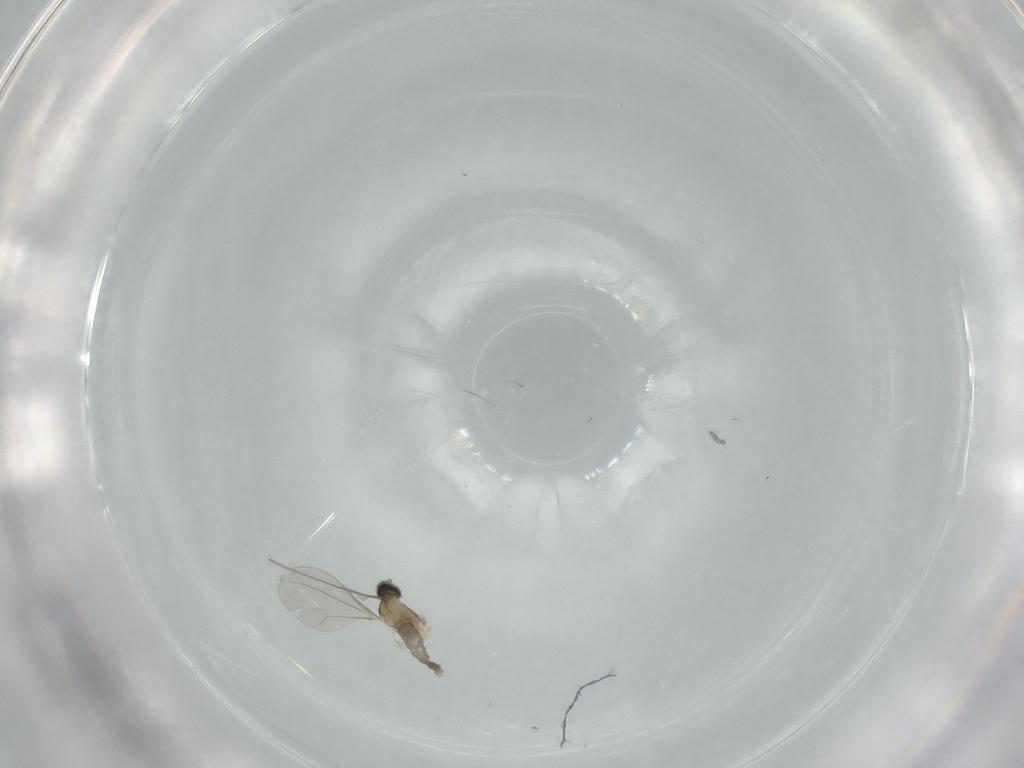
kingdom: Animalia
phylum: Arthropoda
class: Insecta
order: Diptera
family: Cecidomyiidae
